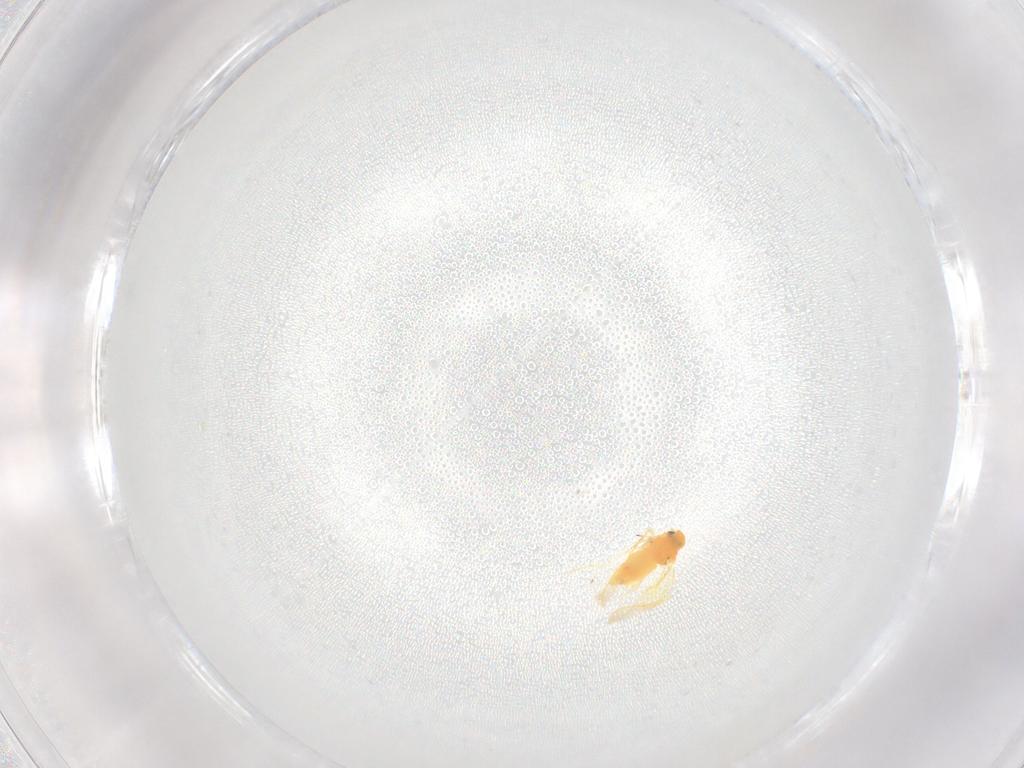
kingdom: Animalia
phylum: Arthropoda
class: Insecta
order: Hemiptera
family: Aleyrodidae
